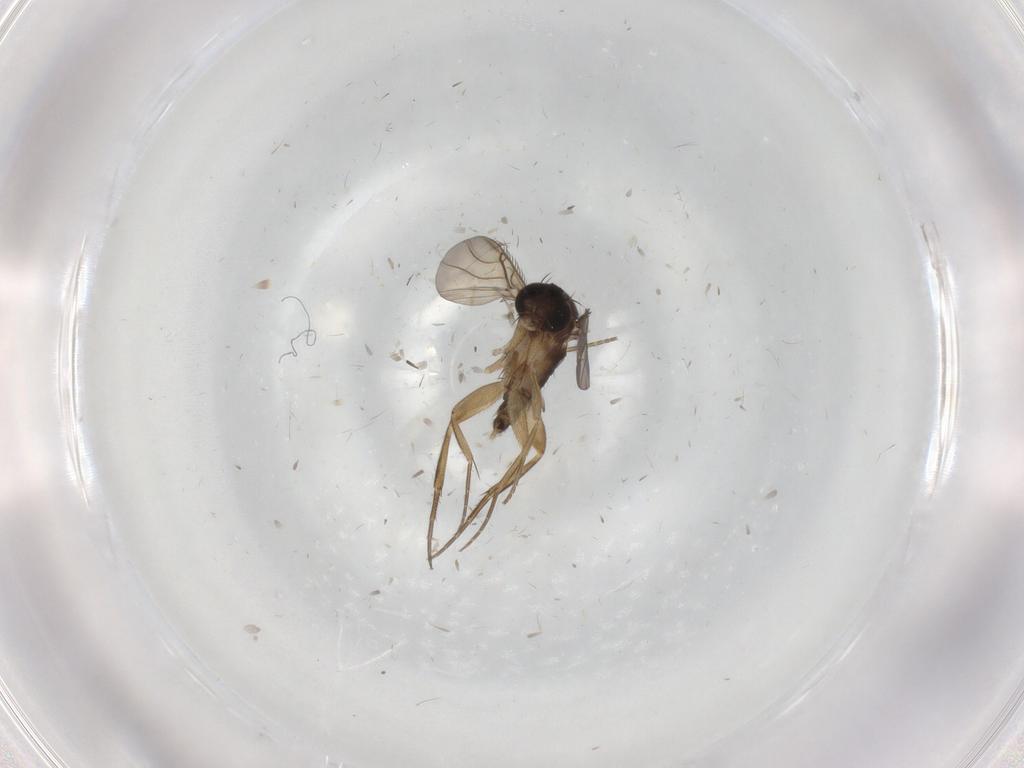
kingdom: Animalia
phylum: Arthropoda
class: Insecta
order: Diptera
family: Phoridae
